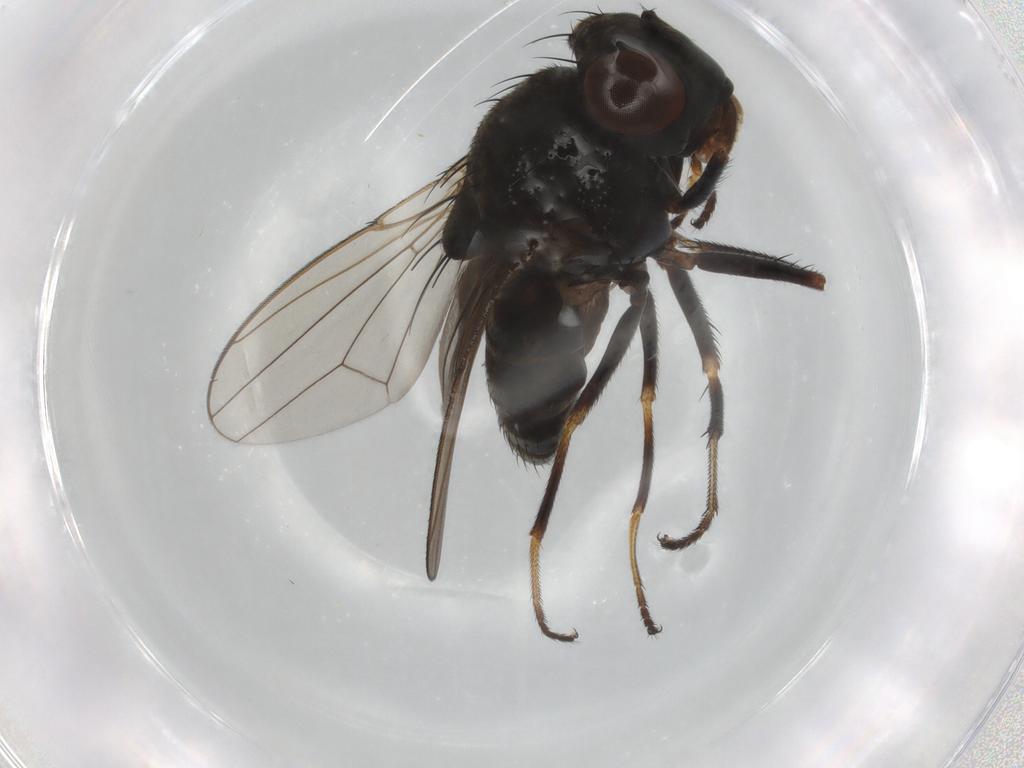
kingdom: Animalia
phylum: Arthropoda
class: Insecta
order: Diptera
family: Ephydridae
